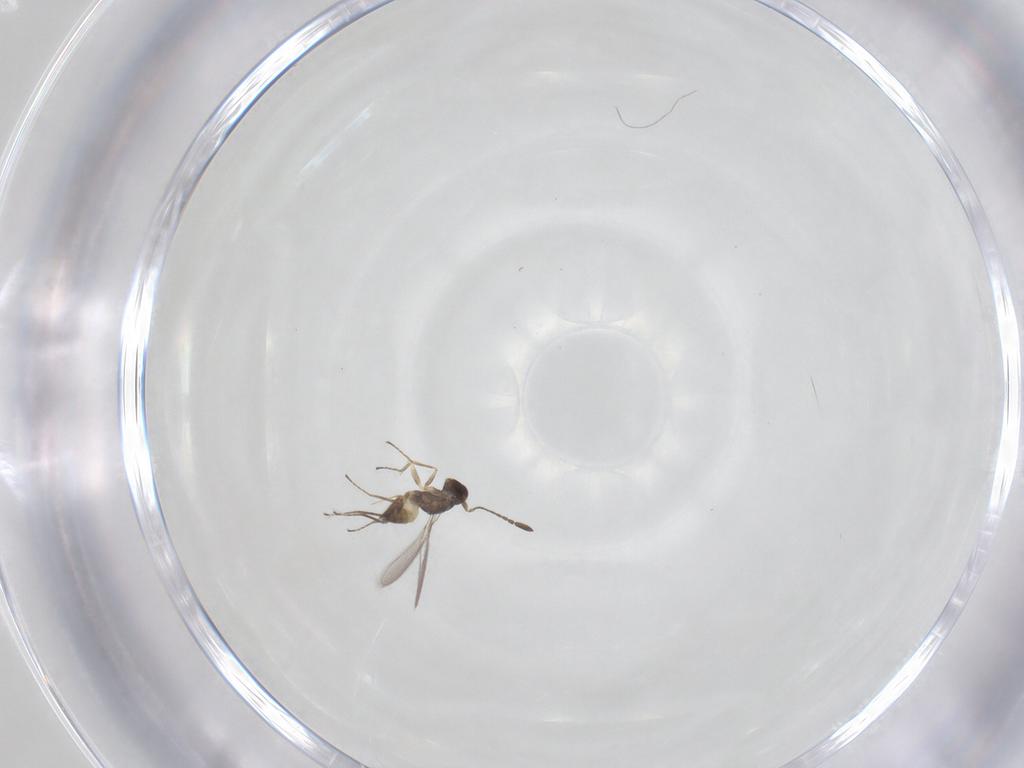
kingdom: Animalia
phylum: Arthropoda
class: Insecta
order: Hymenoptera
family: Mymaridae
